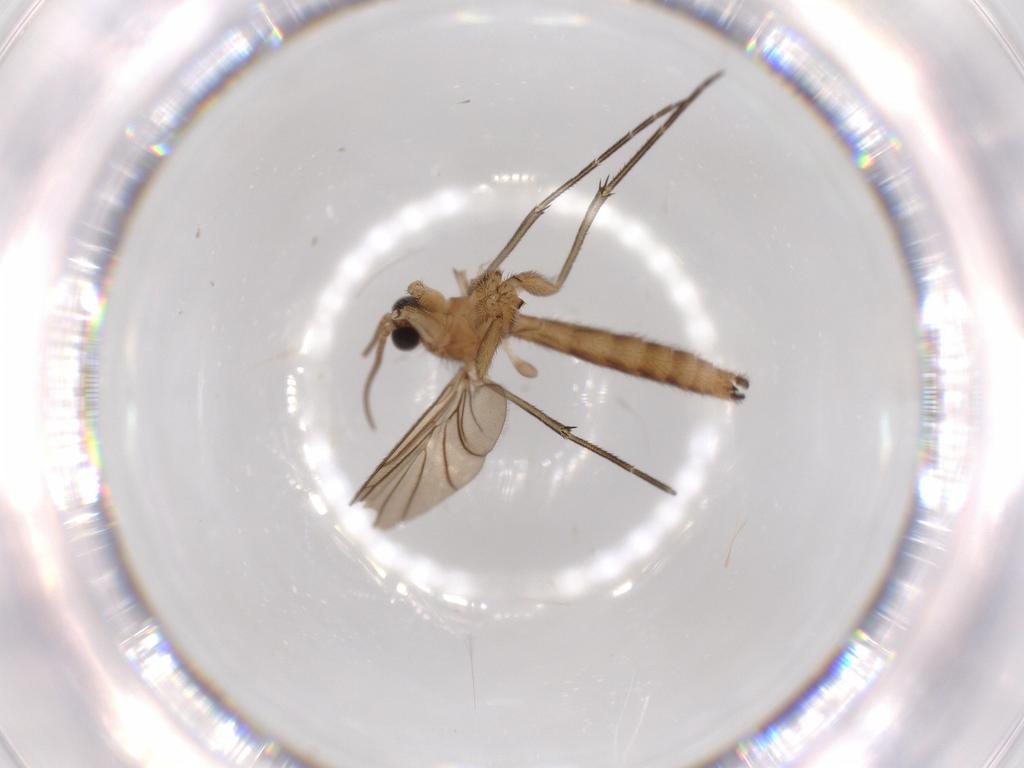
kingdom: Animalia
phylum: Arthropoda
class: Insecta
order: Diptera
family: Keroplatidae
